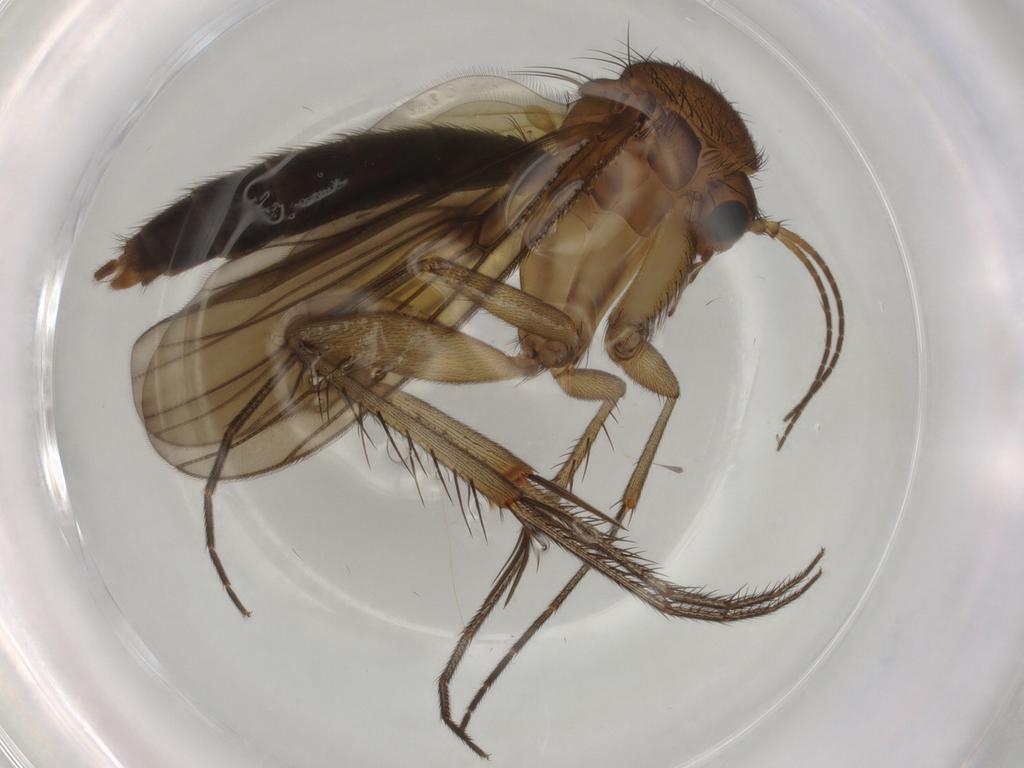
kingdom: Animalia
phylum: Arthropoda
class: Insecta
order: Diptera
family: Mycetophilidae
